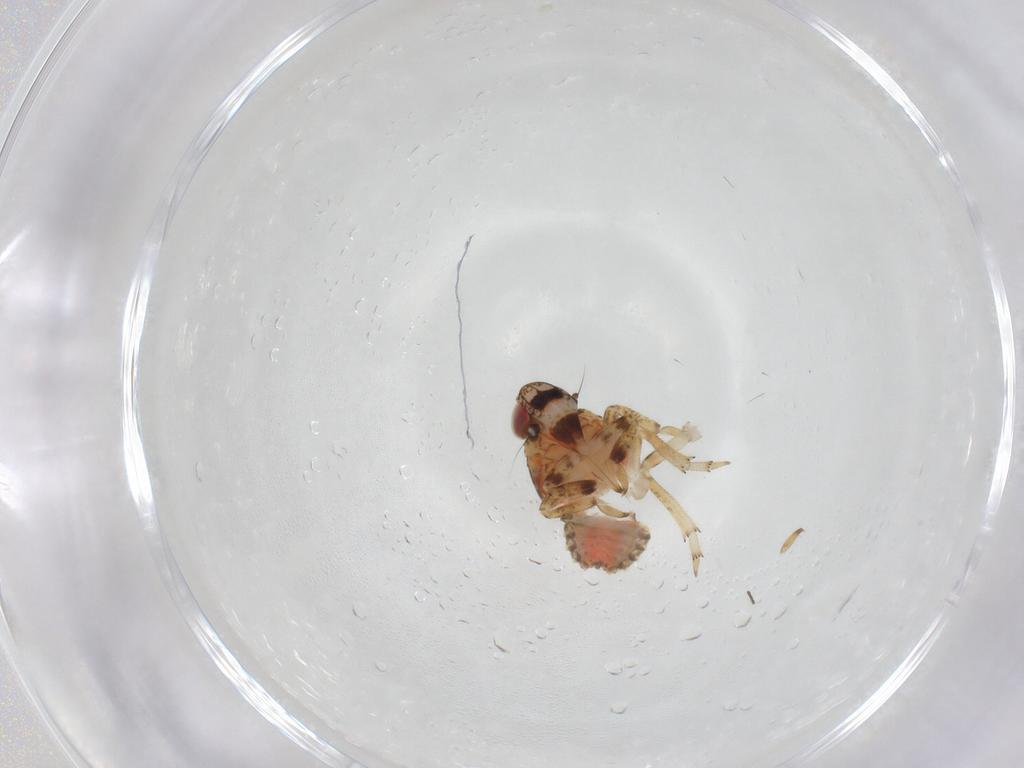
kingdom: Animalia
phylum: Arthropoda
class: Insecta
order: Hemiptera
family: Issidae
